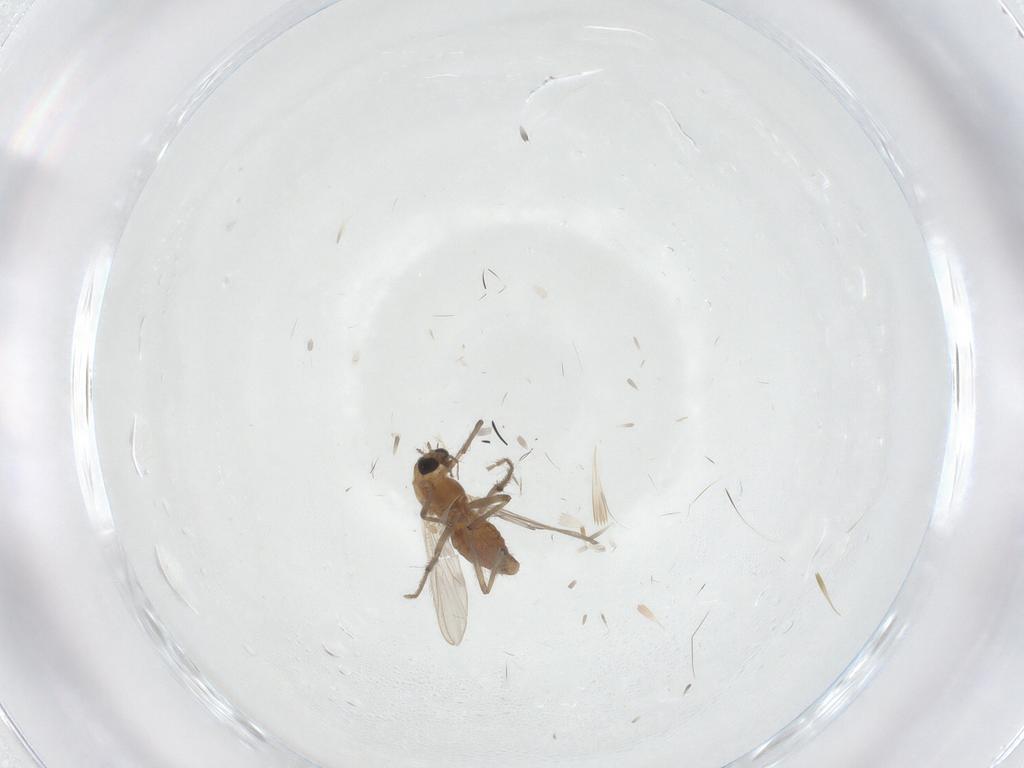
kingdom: Animalia
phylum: Arthropoda
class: Insecta
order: Diptera
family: Chironomidae
